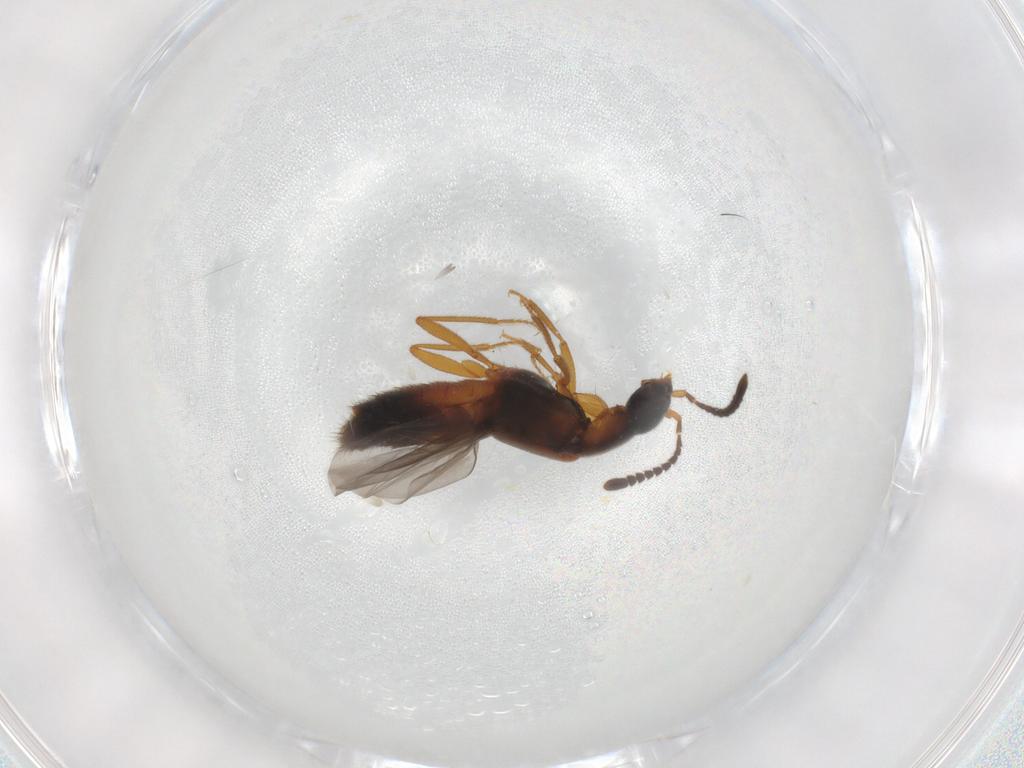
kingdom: Animalia
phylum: Arthropoda
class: Insecta
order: Coleoptera
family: Staphylinidae
